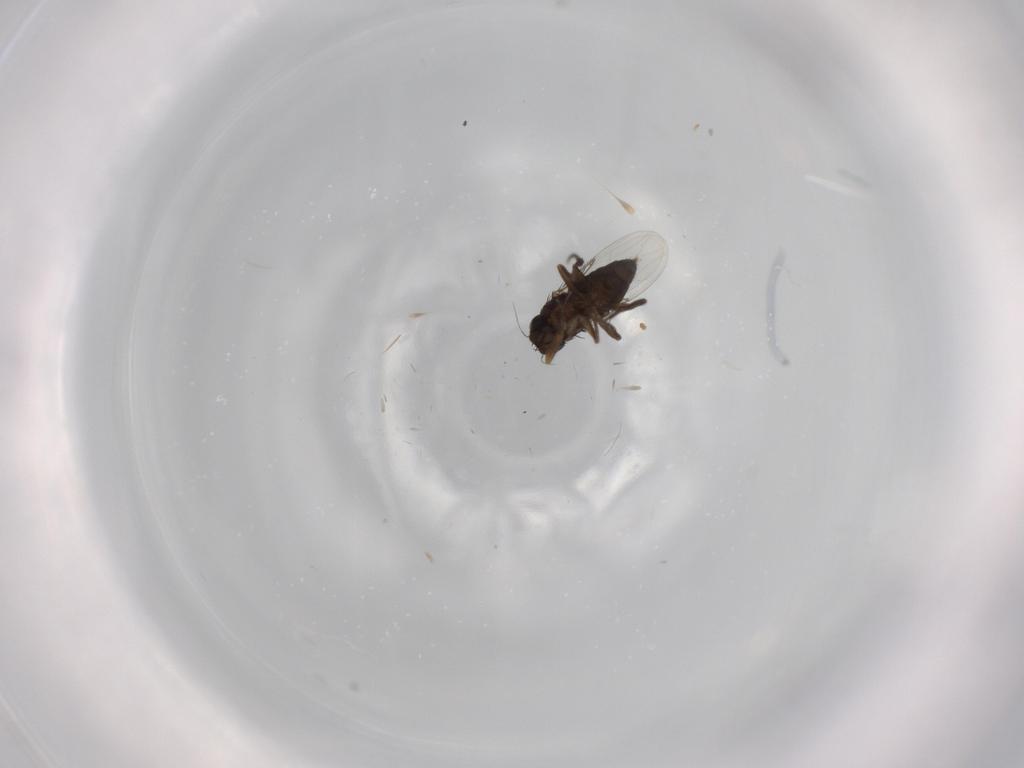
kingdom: Animalia
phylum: Arthropoda
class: Insecta
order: Diptera
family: Phoridae
